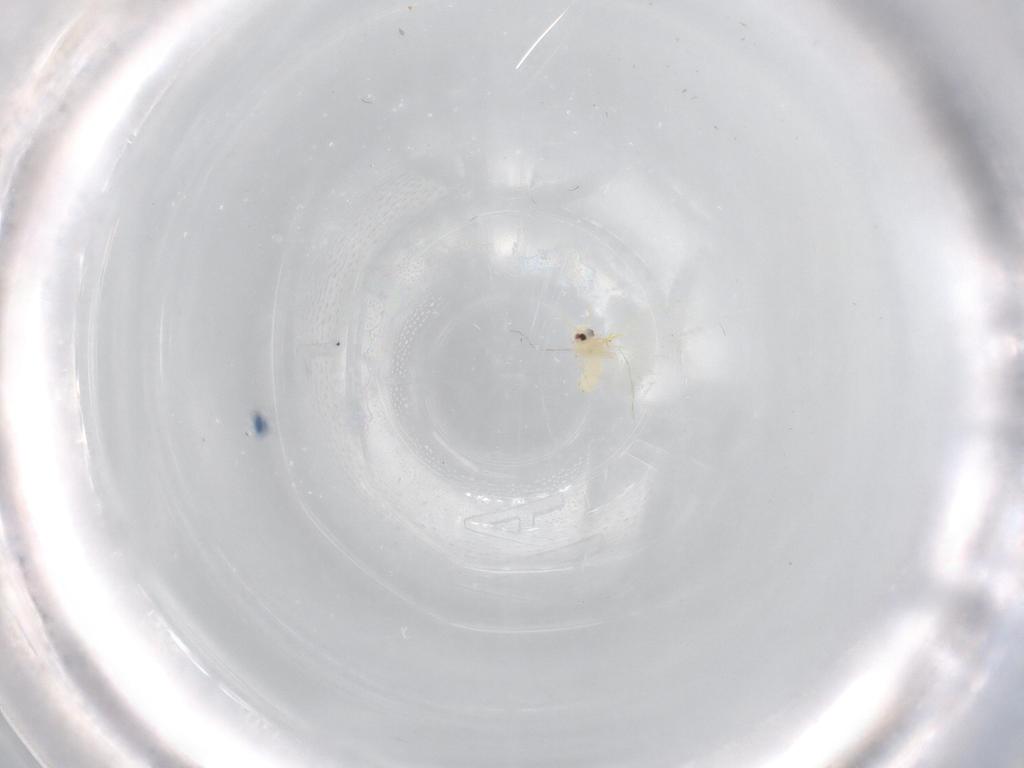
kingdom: Animalia
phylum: Arthropoda
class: Insecta
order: Hemiptera
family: Aleyrodidae
